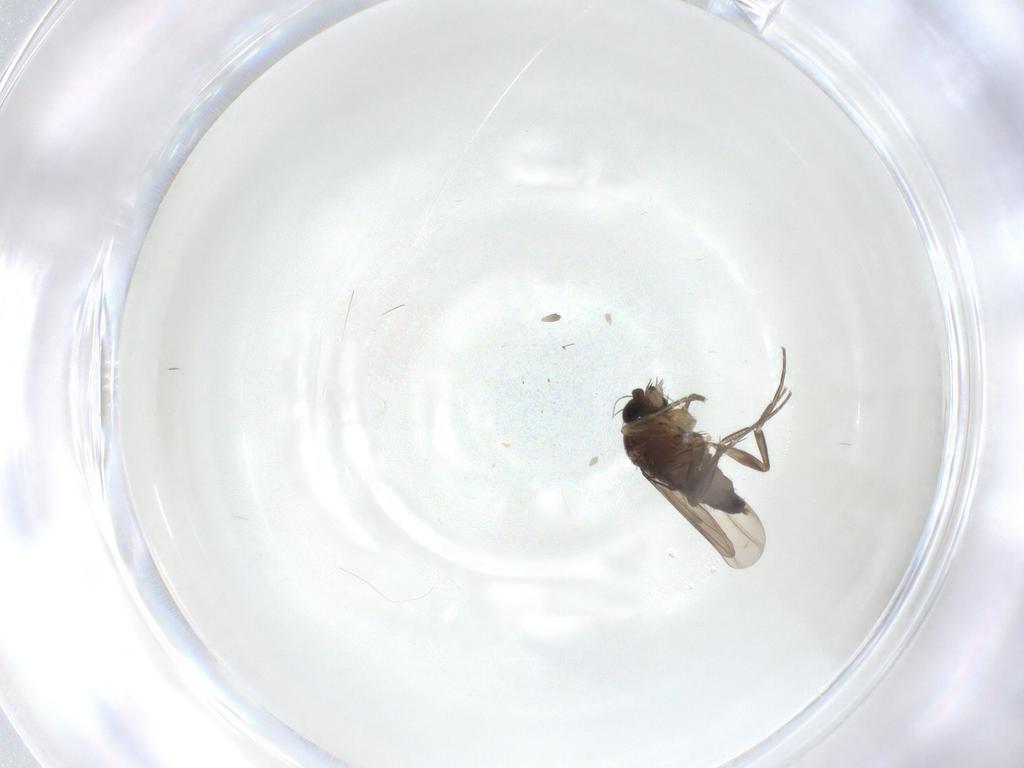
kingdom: Animalia
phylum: Arthropoda
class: Insecta
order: Diptera
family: Phoridae
